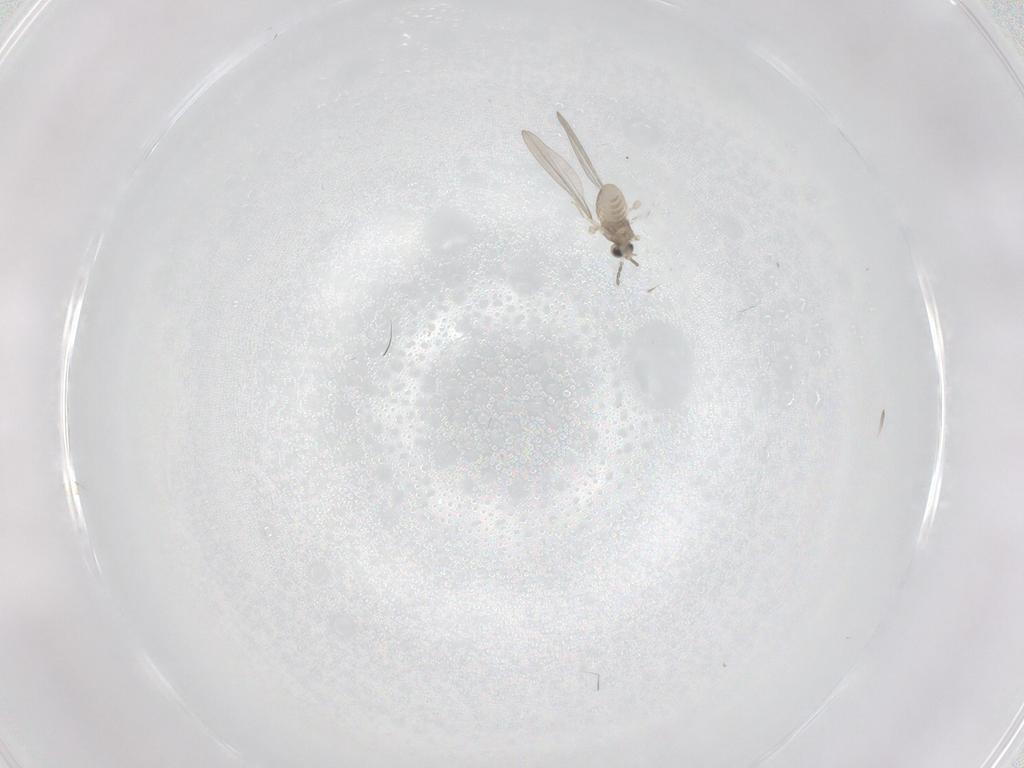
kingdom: Animalia
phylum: Arthropoda
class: Insecta
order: Diptera
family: Ceratopogonidae
